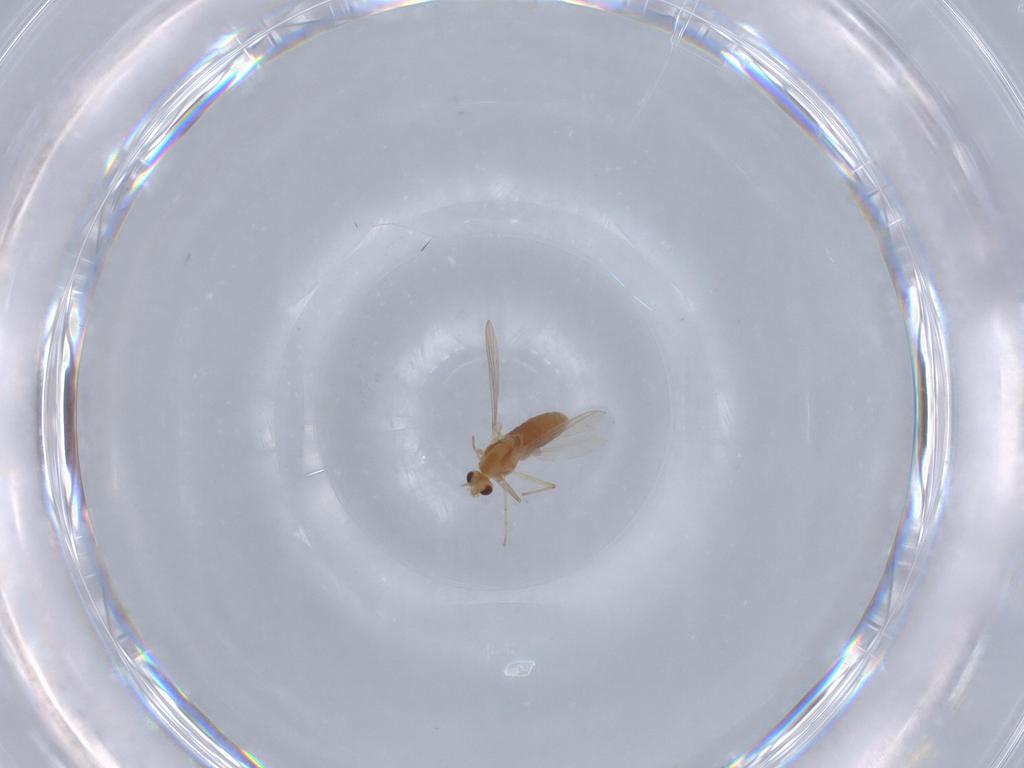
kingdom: Animalia
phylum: Arthropoda
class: Insecta
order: Diptera
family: Chironomidae
